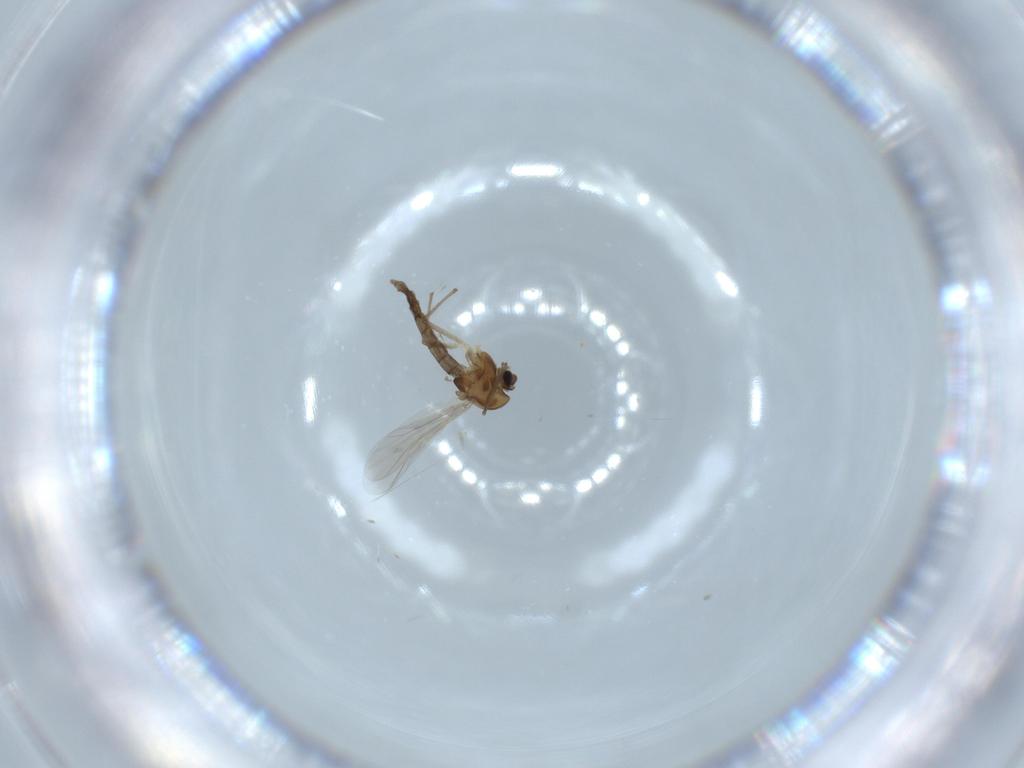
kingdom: Animalia
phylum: Arthropoda
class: Insecta
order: Diptera
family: Chironomidae
